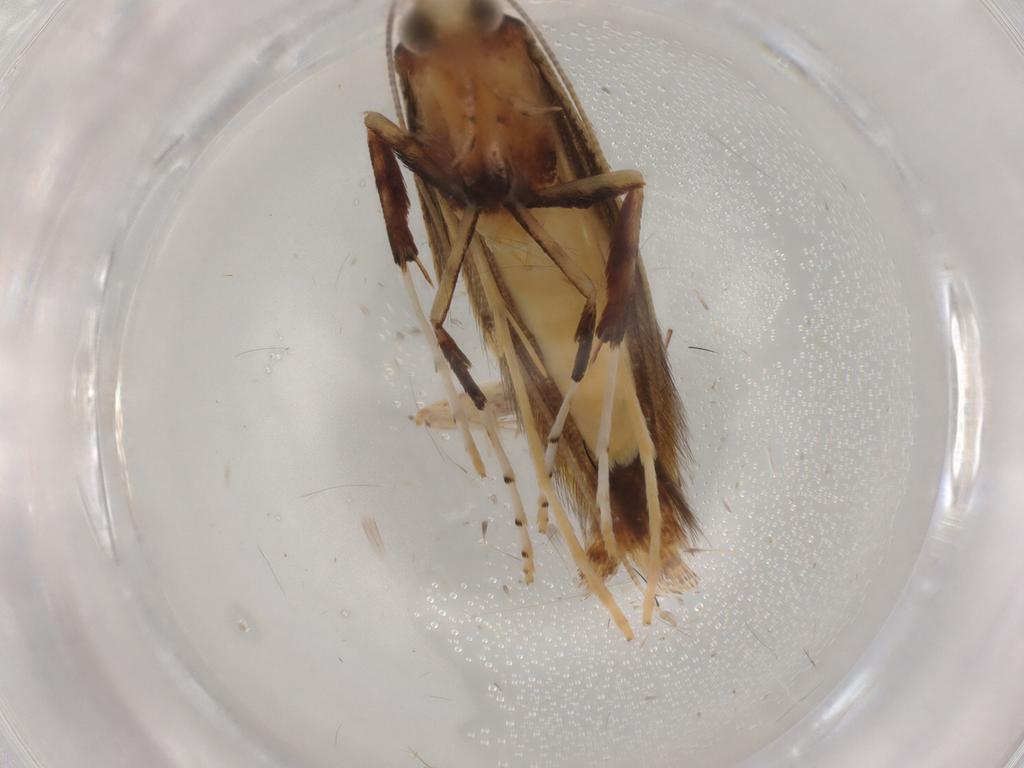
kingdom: Animalia
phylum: Arthropoda
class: Insecta
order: Lepidoptera
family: Gracillariidae
